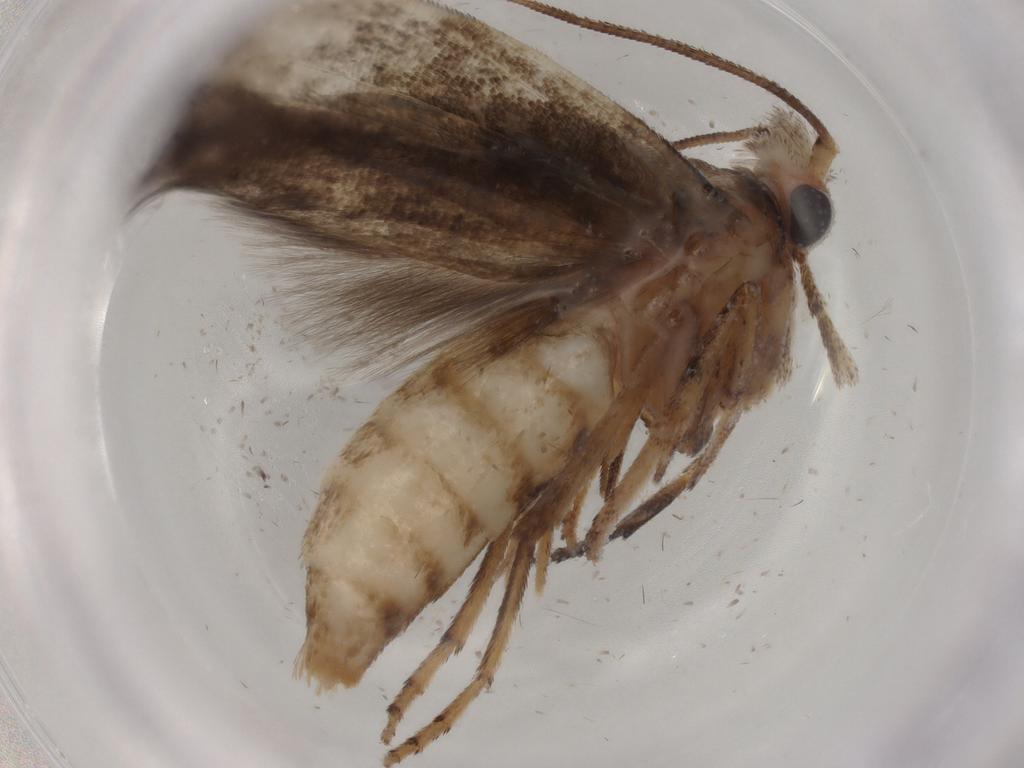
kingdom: Animalia
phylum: Arthropoda
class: Insecta
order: Lepidoptera
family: Yponomeutidae
